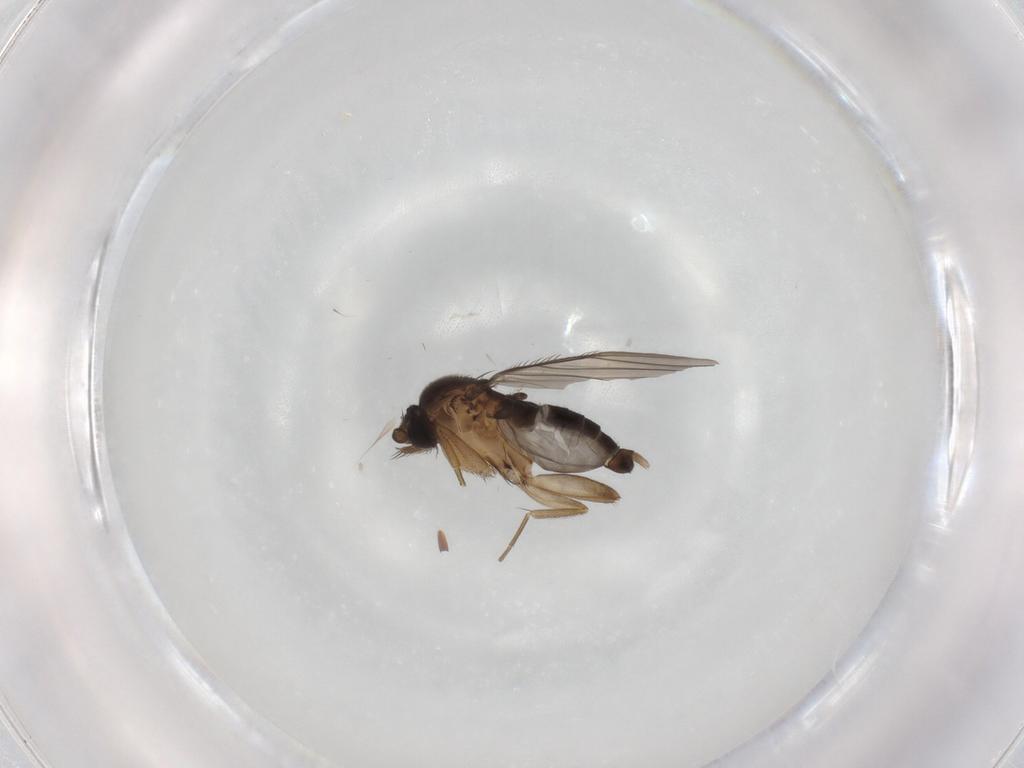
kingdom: Animalia
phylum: Arthropoda
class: Insecta
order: Diptera
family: Phoridae
